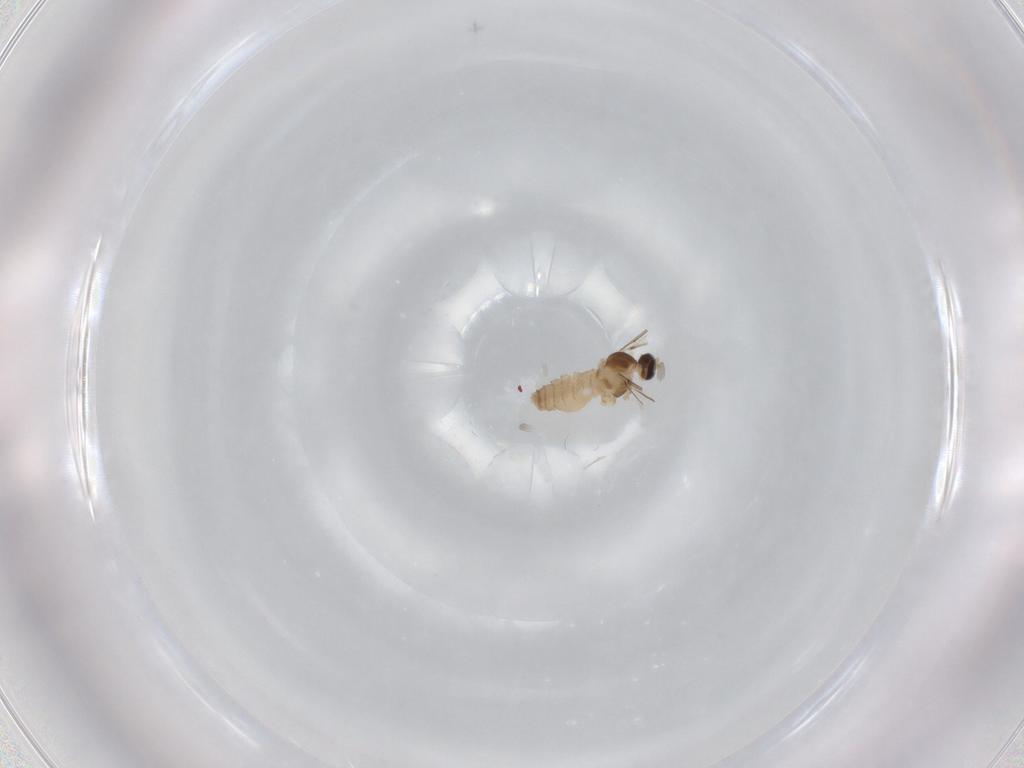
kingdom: Animalia
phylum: Arthropoda
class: Insecta
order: Diptera
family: Cecidomyiidae
